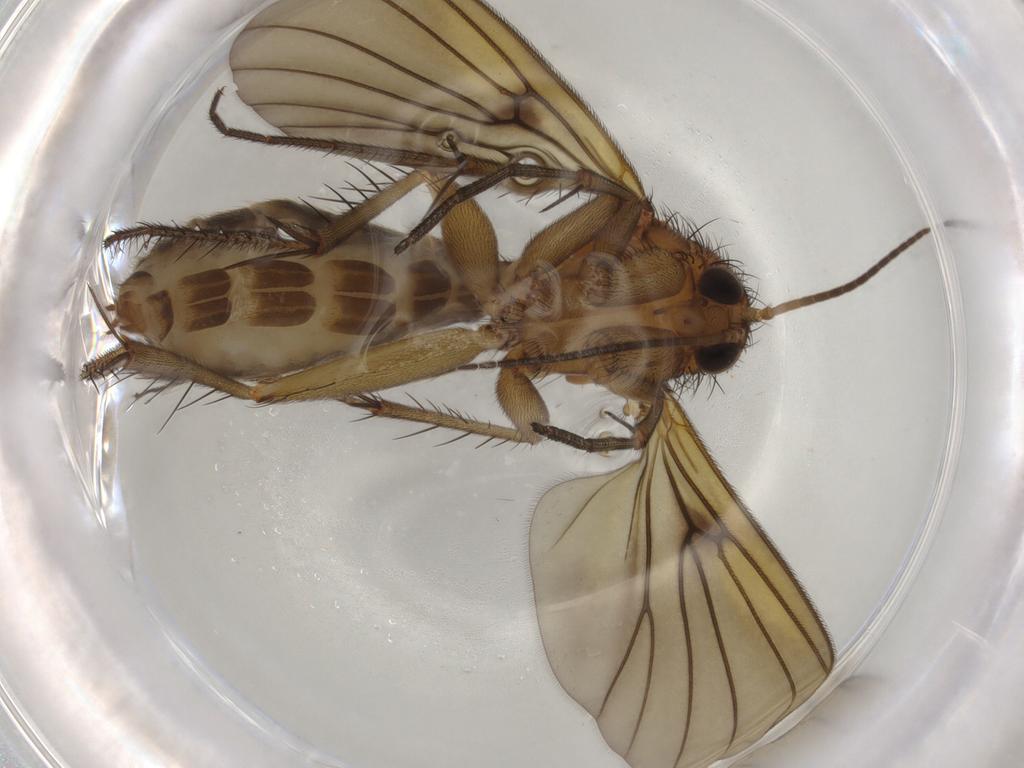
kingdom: Animalia
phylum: Arthropoda
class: Insecta
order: Diptera
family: Mycetophilidae
